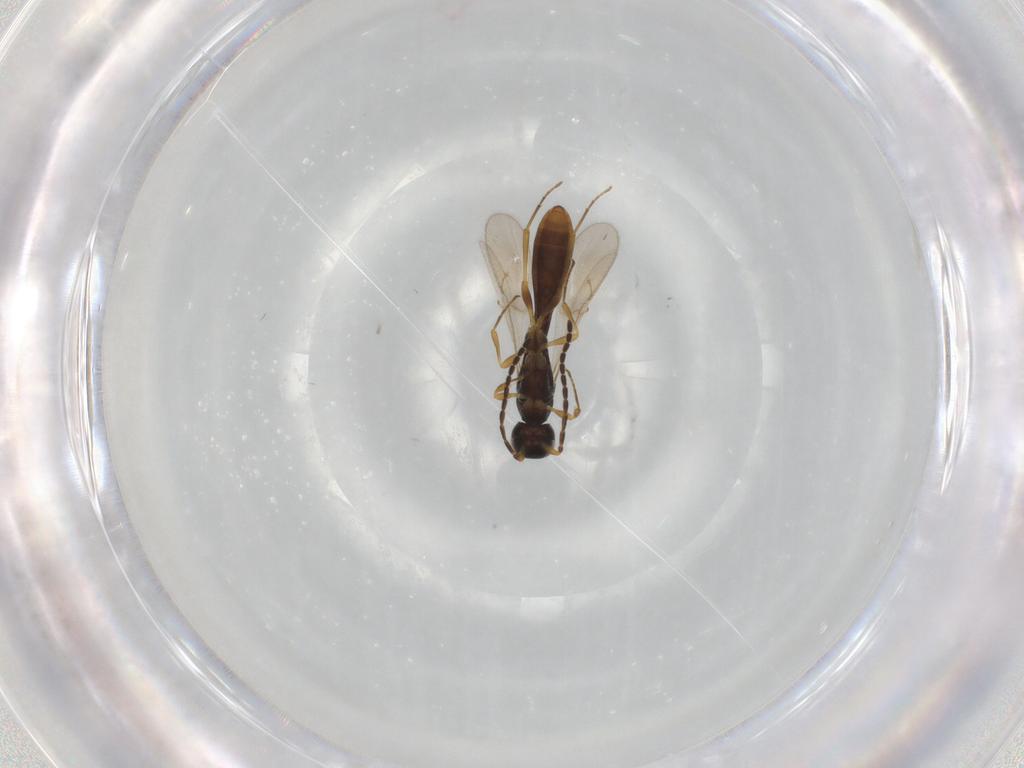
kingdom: Animalia
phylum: Arthropoda
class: Insecta
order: Hymenoptera
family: Scelionidae
